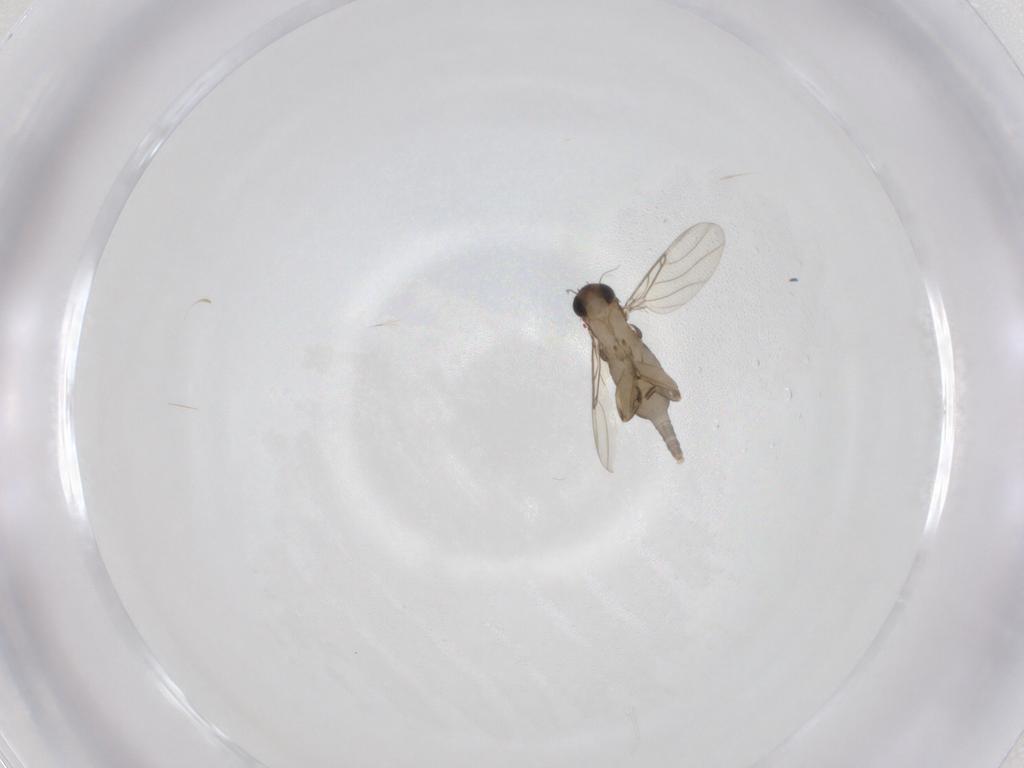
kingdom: Animalia
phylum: Arthropoda
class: Insecta
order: Diptera
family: Phoridae
